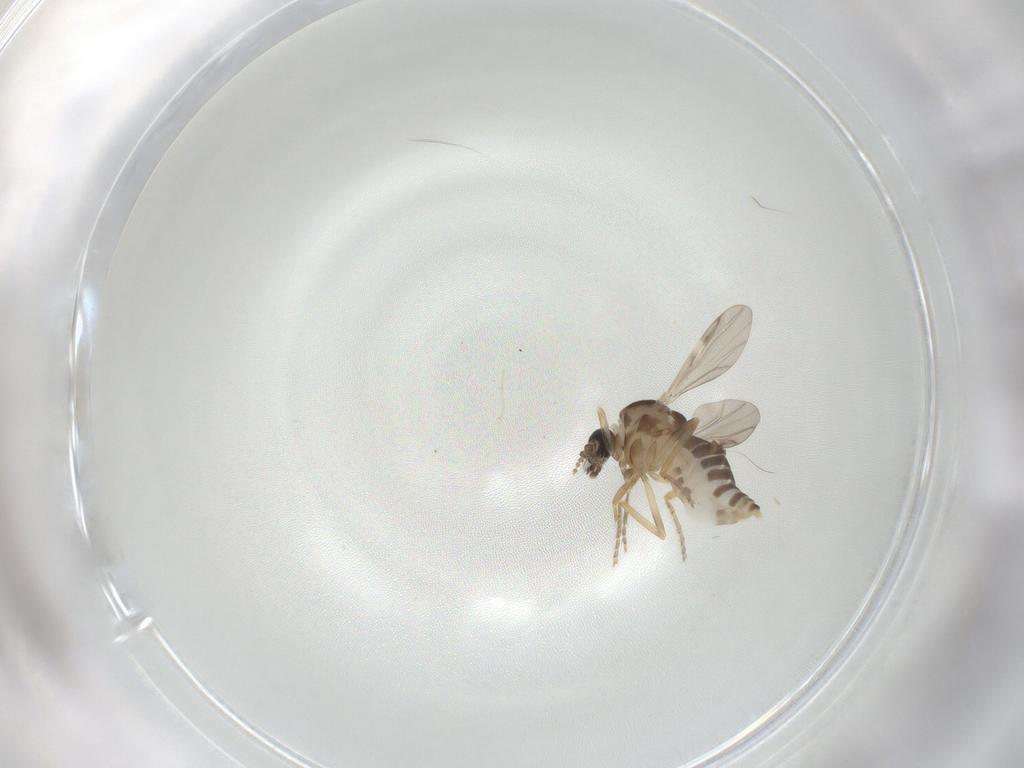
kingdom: Animalia
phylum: Arthropoda
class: Insecta
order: Diptera
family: Ceratopogonidae
